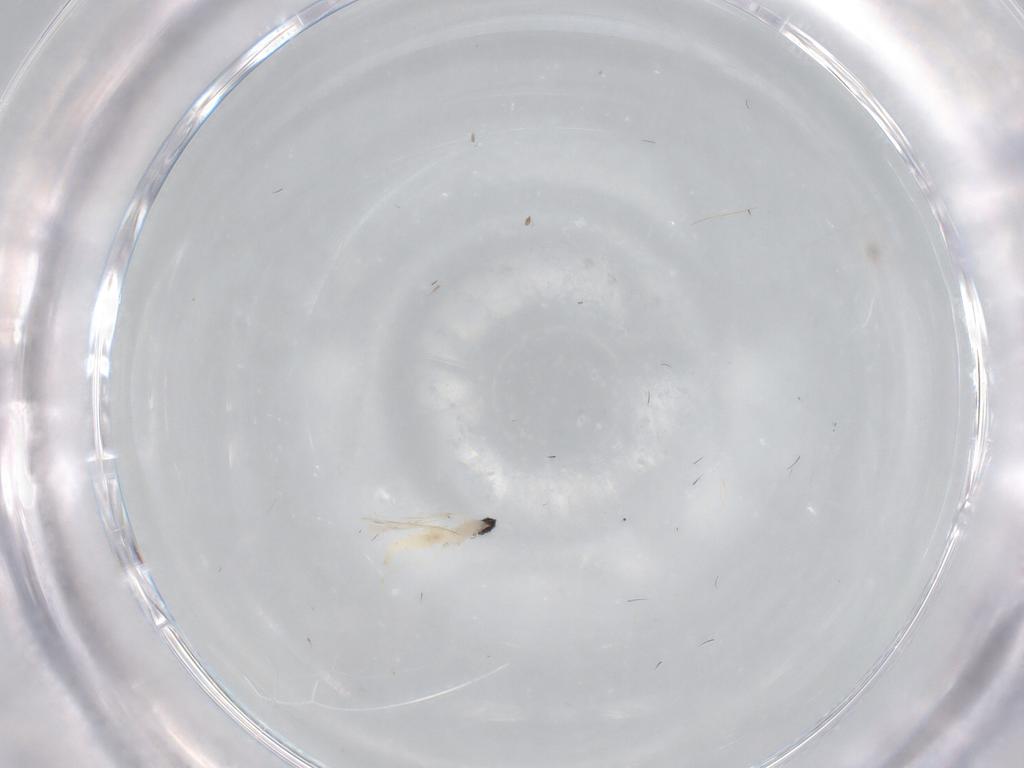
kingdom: Animalia
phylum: Arthropoda
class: Insecta
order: Diptera
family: Cecidomyiidae
